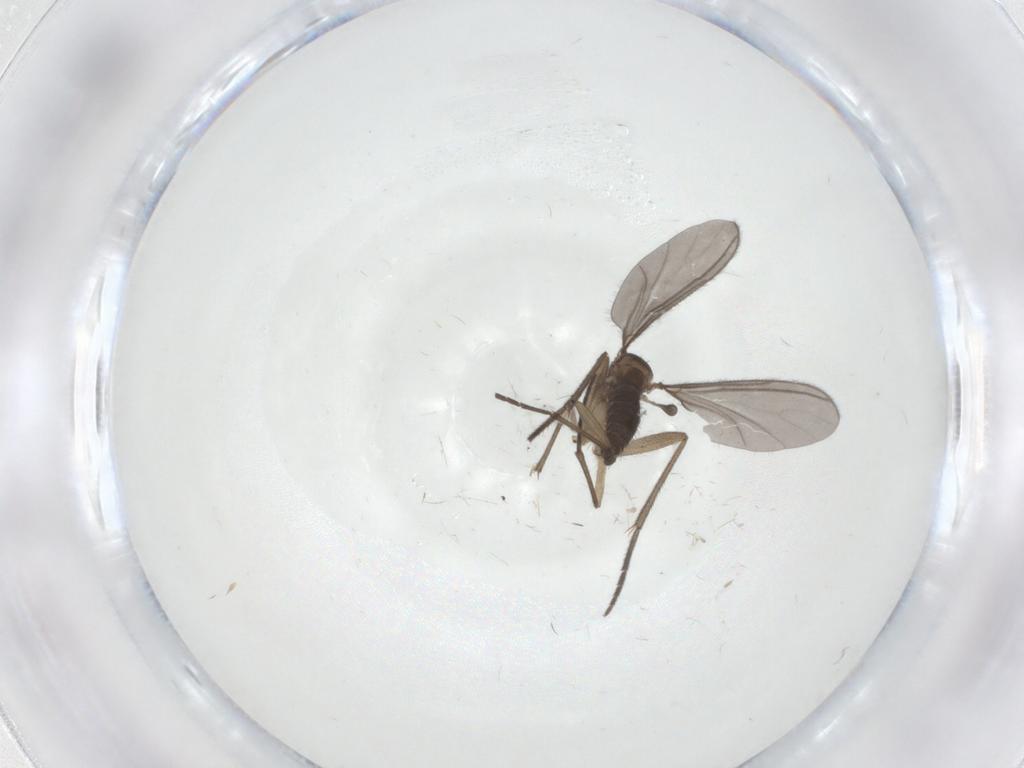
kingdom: Animalia
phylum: Arthropoda
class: Insecta
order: Diptera
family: Sciaridae
